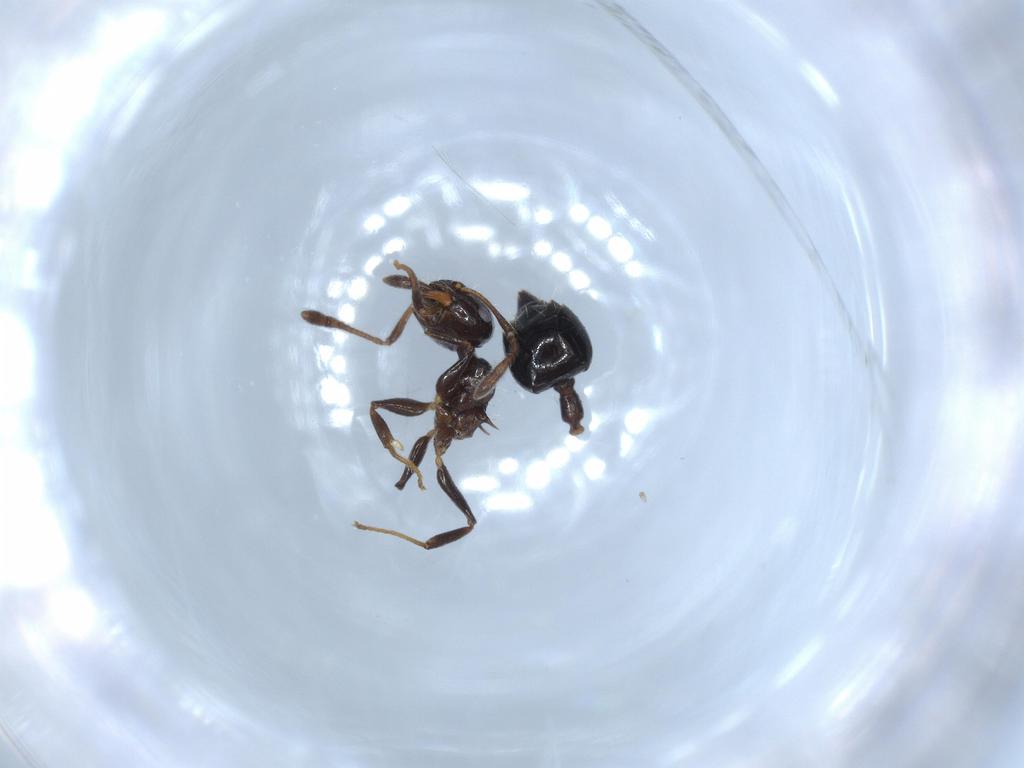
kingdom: Animalia
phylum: Arthropoda
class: Insecta
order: Hymenoptera
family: Formicidae
